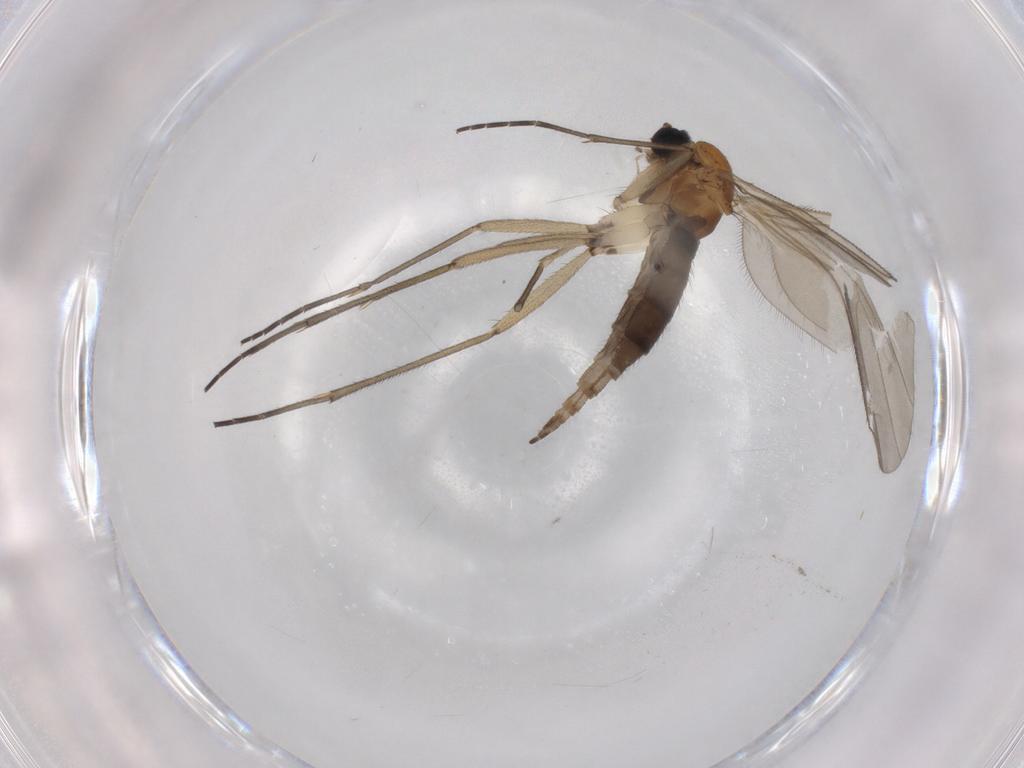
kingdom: Animalia
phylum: Arthropoda
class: Insecta
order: Diptera
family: Sciaridae
